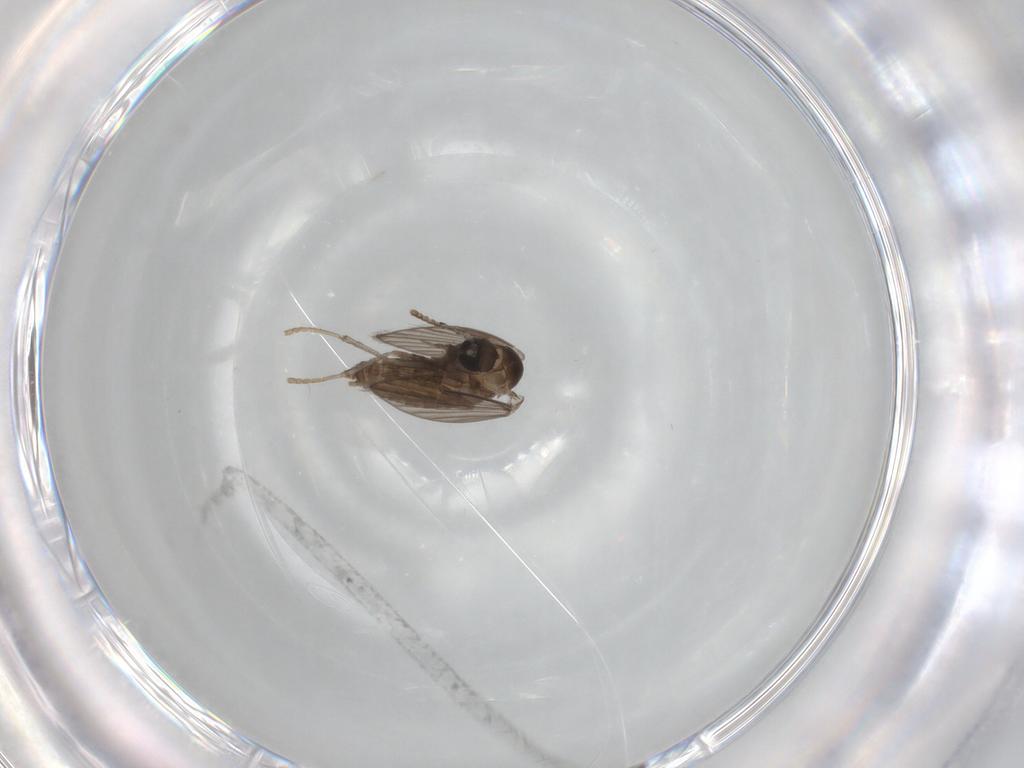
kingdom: Animalia
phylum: Arthropoda
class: Insecta
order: Diptera
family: Psychodidae
